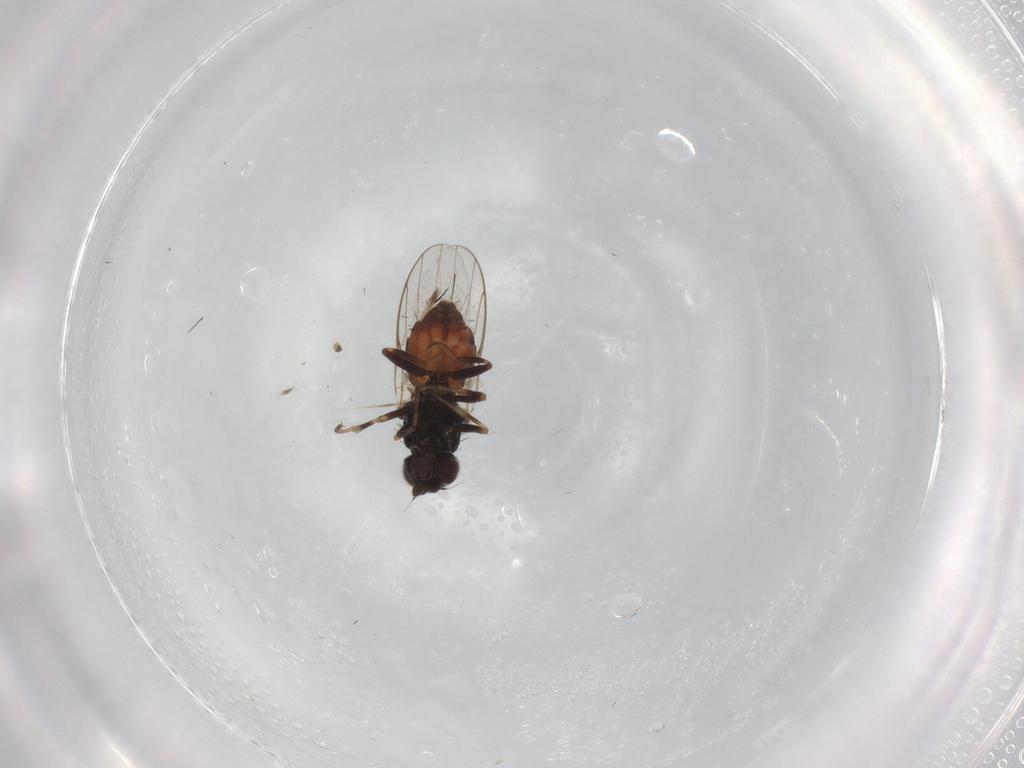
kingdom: Animalia
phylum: Arthropoda
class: Insecta
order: Diptera
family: Chloropidae
